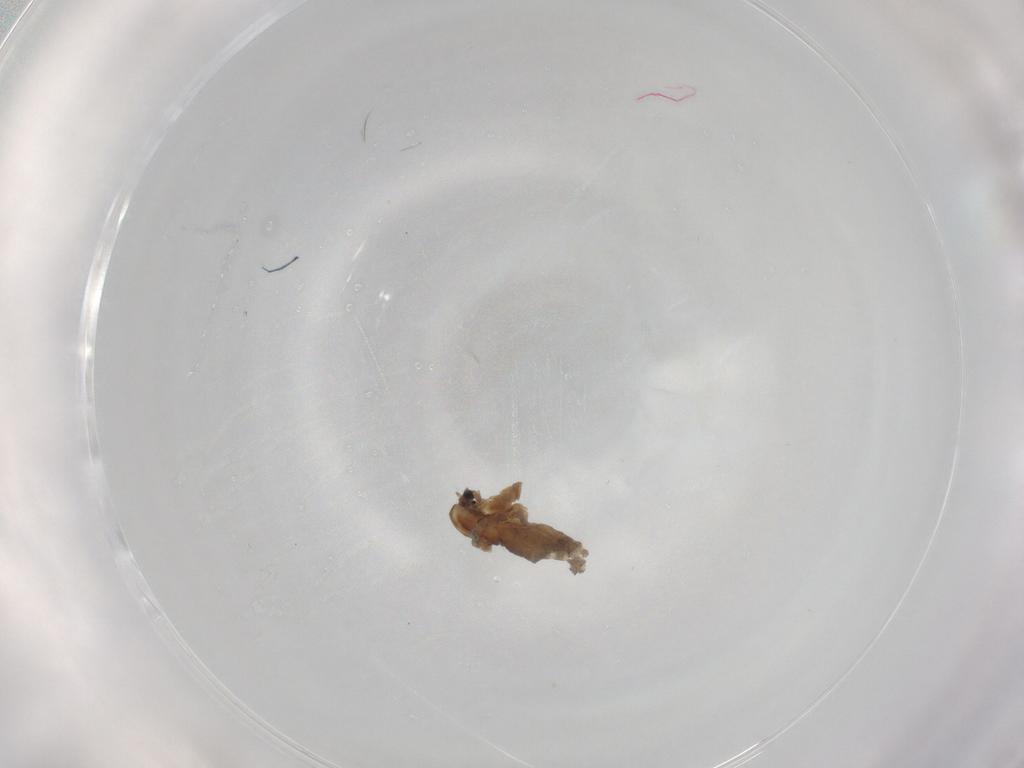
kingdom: Animalia
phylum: Arthropoda
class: Insecta
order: Diptera
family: Chironomidae
